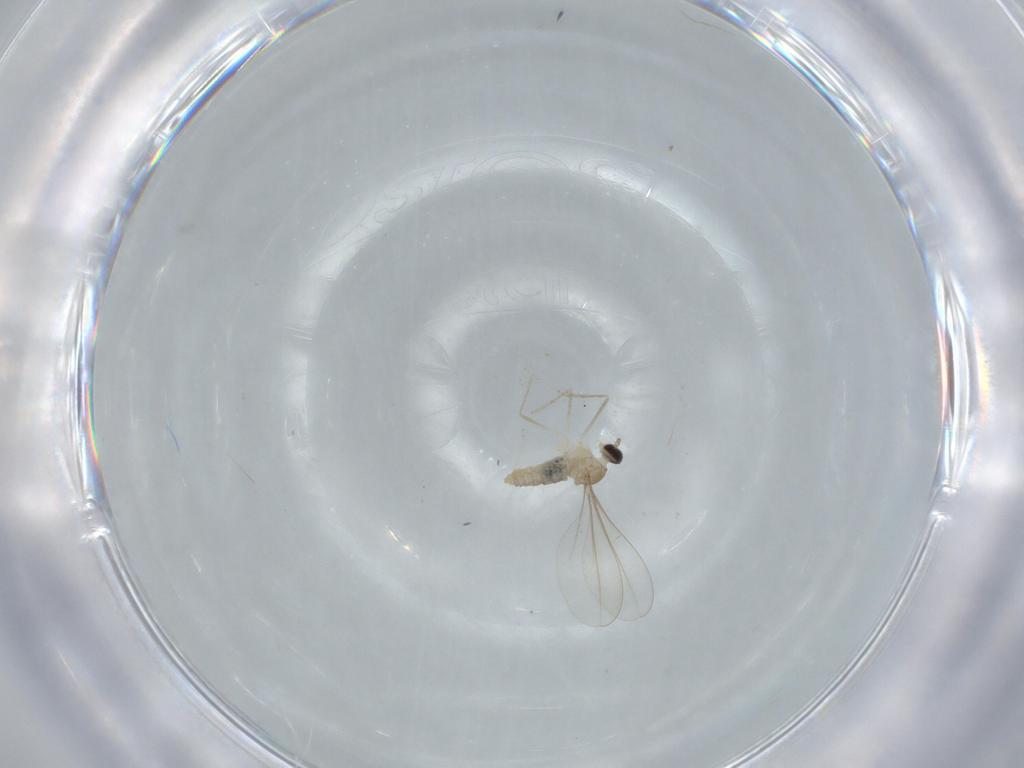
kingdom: Animalia
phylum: Arthropoda
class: Insecta
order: Diptera
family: Cecidomyiidae
